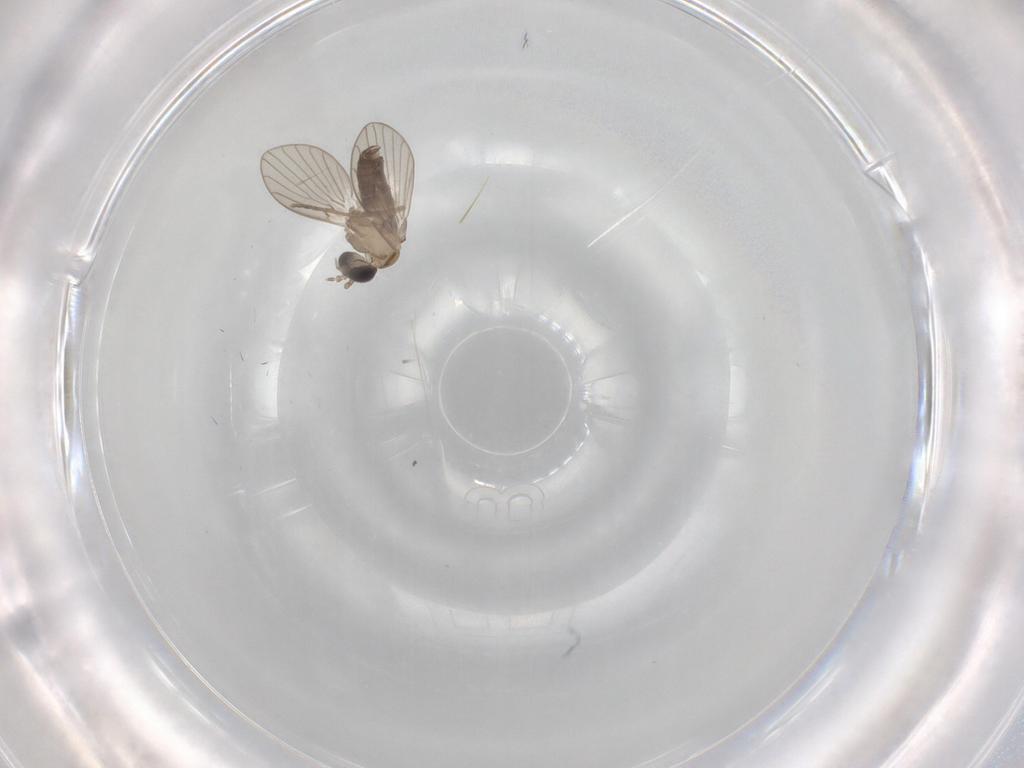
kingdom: Animalia
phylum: Arthropoda
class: Insecta
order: Diptera
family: Psychodidae
